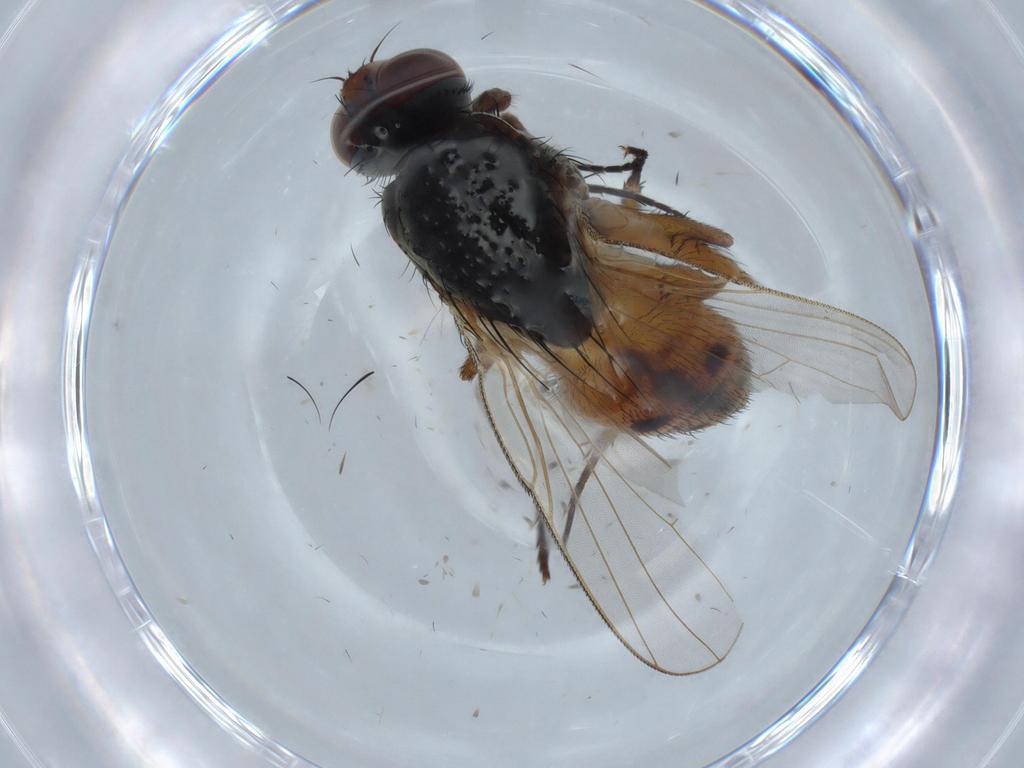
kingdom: Animalia
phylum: Arthropoda
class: Insecta
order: Diptera
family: Muscidae
